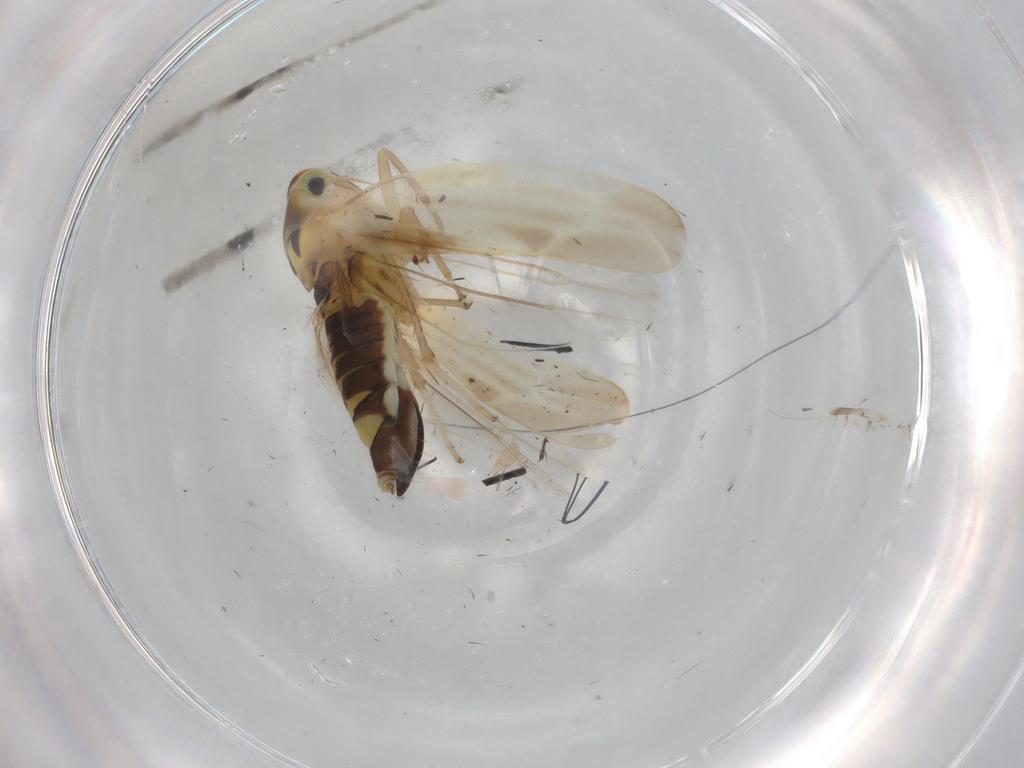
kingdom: Animalia
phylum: Arthropoda
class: Insecta
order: Hemiptera
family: Cicadellidae
